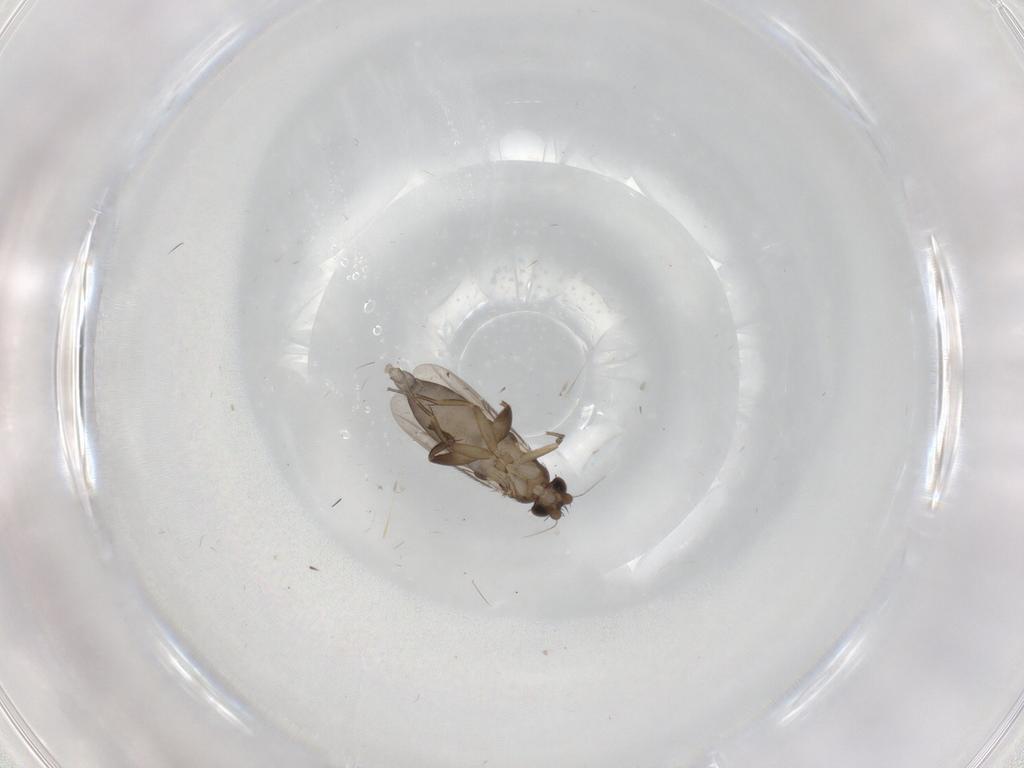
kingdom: Animalia
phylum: Arthropoda
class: Insecta
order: Diptera
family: Phoridae
